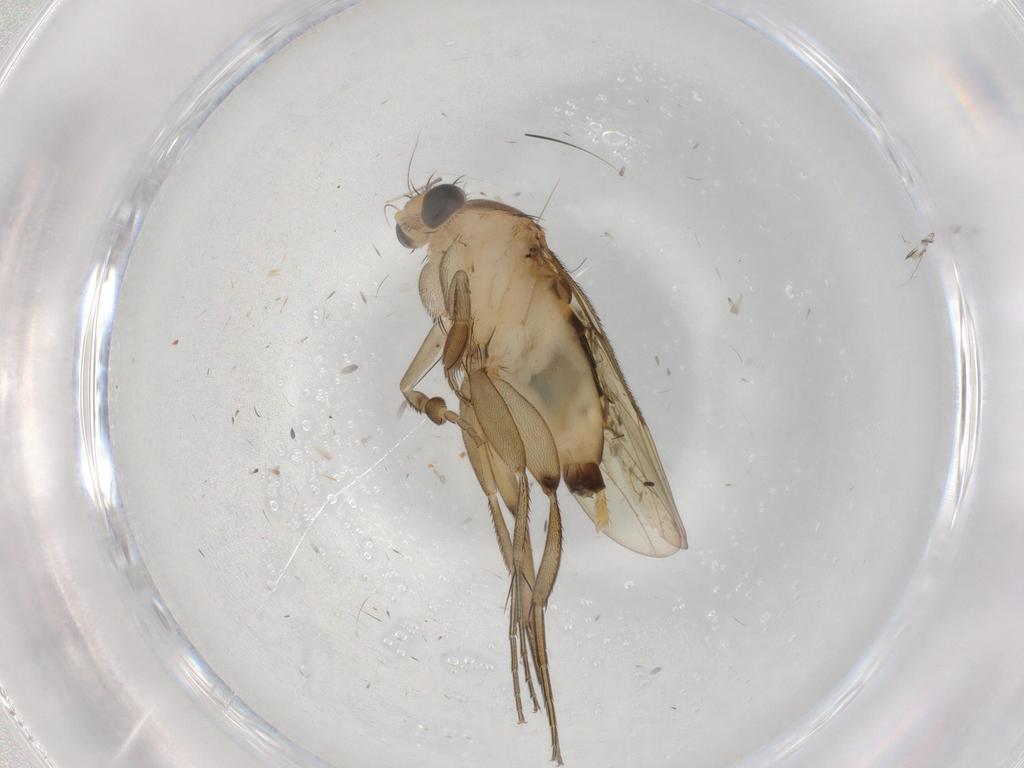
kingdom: Animalia
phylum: Arthropoda
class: Insecta
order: Diptera
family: Phoridae
